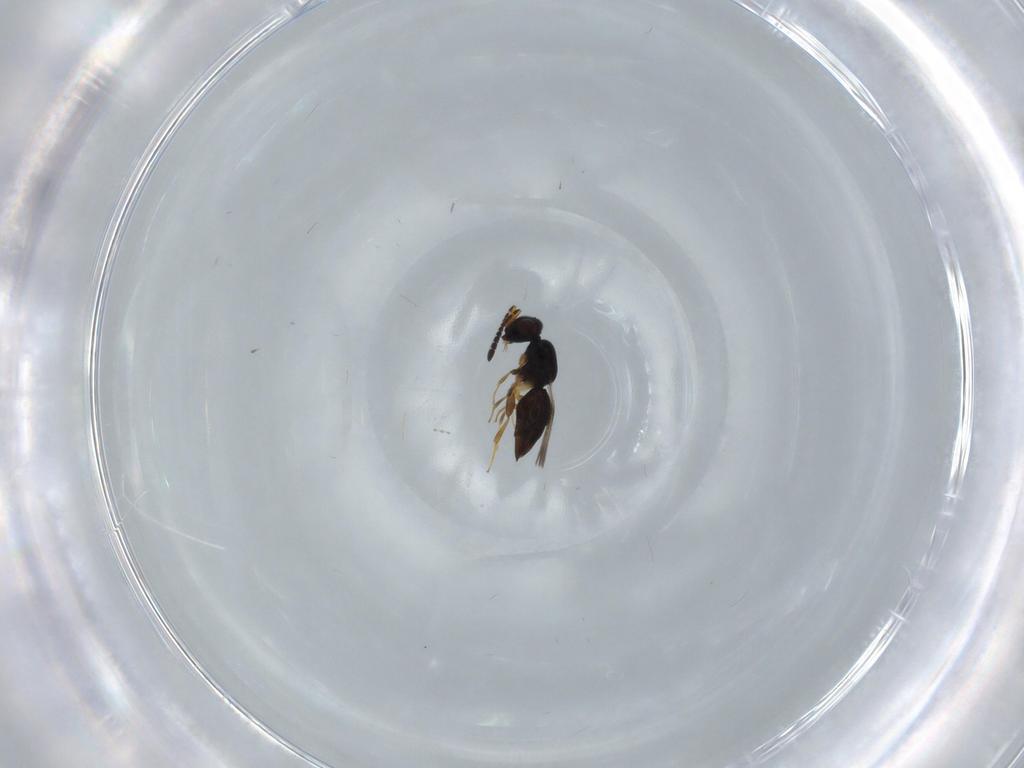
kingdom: Animalia
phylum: Arthropoda
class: Insecta
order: Hymenoptera
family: Ceraphronidae
